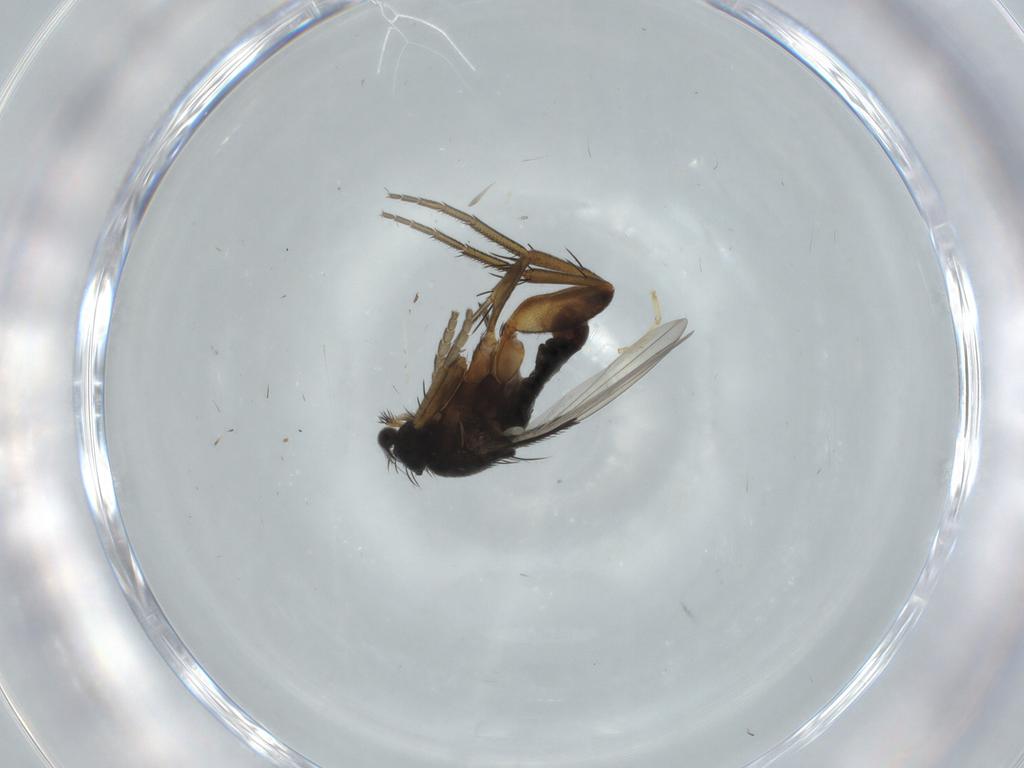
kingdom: Animalia
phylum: Arthropoda
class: Insecta
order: Diptera
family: Phoridae
